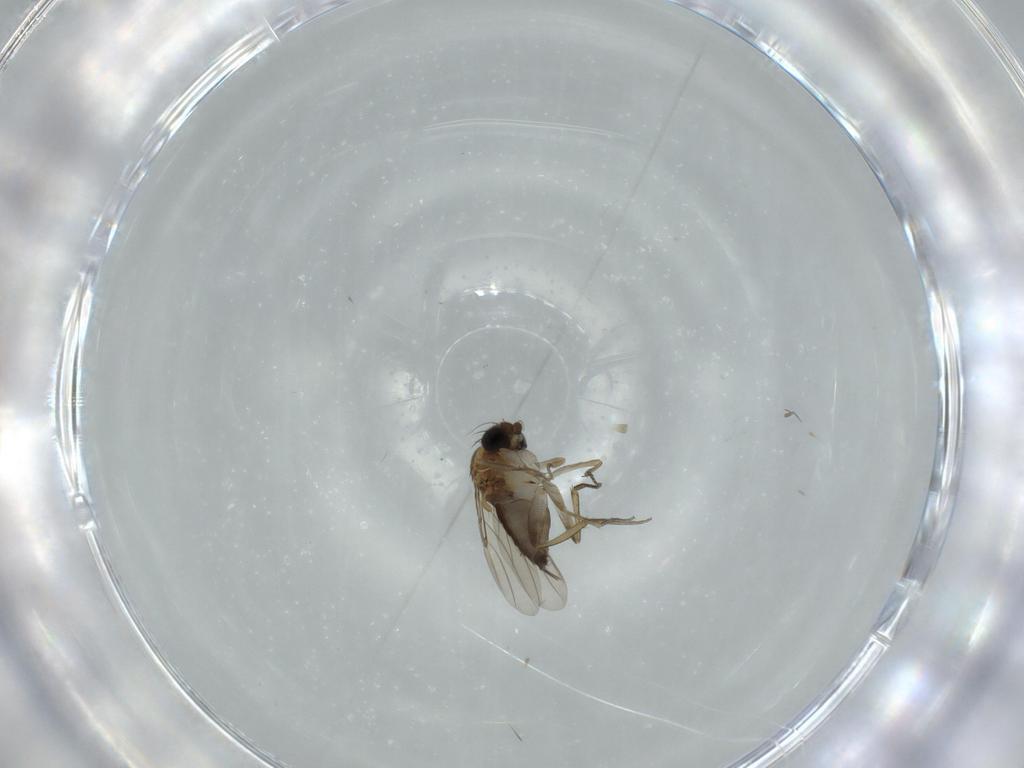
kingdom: Animalia
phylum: Arthropoda
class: Insecta
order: Diptera
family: Phoridae
